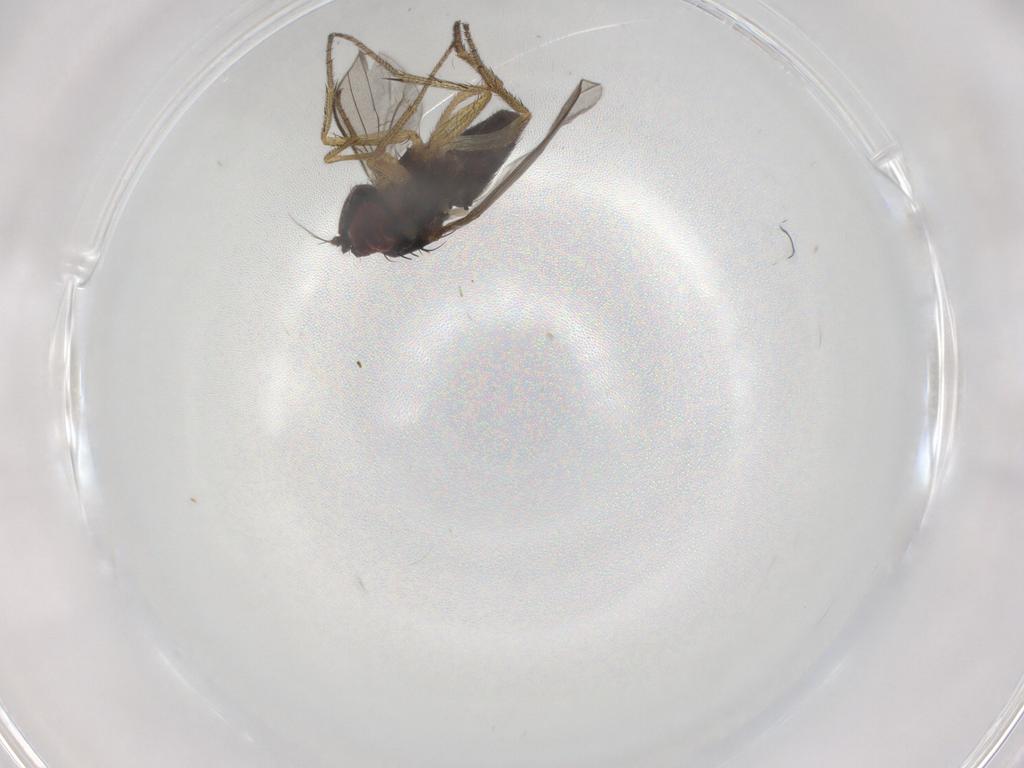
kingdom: Animalia
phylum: Arthropoda
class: Insecta
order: Diptera
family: Dolichopodidae
